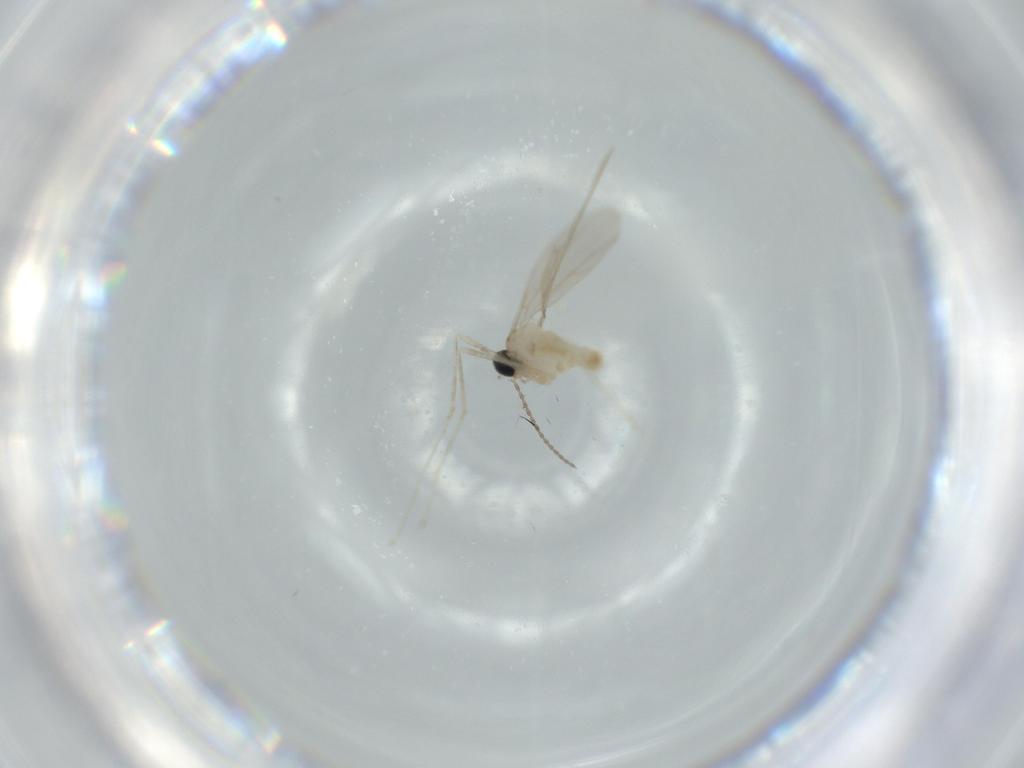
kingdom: Animalia
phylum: Arthropoda
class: Insecta
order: Diptera
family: Cecidomyiidae
